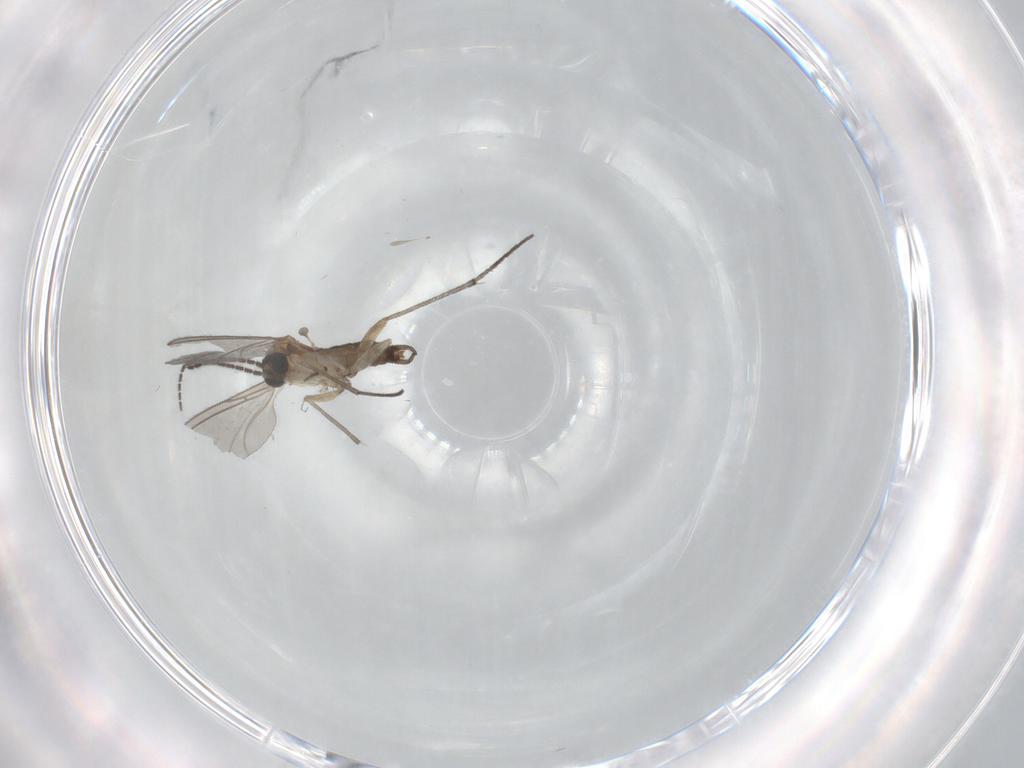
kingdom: Animalia
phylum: Arthropoda
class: Insecta
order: Diptera
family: Sciaridae
